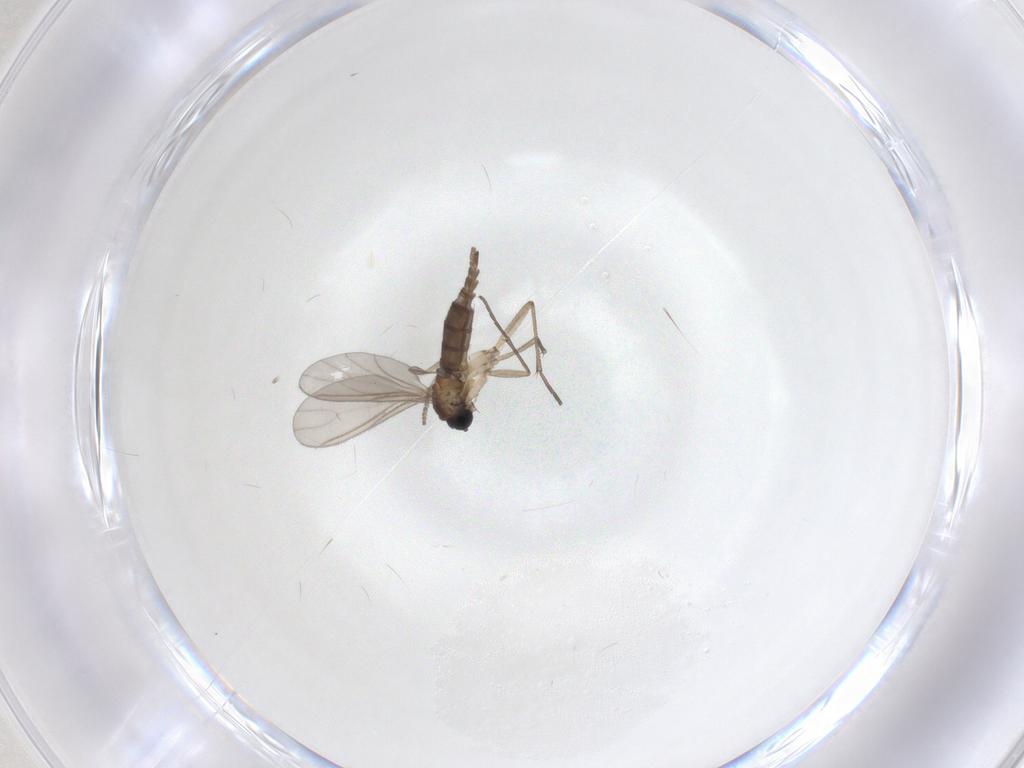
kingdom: Animalia
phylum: Arthropoda
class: Insecta
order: Diptera
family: Sciaridae
